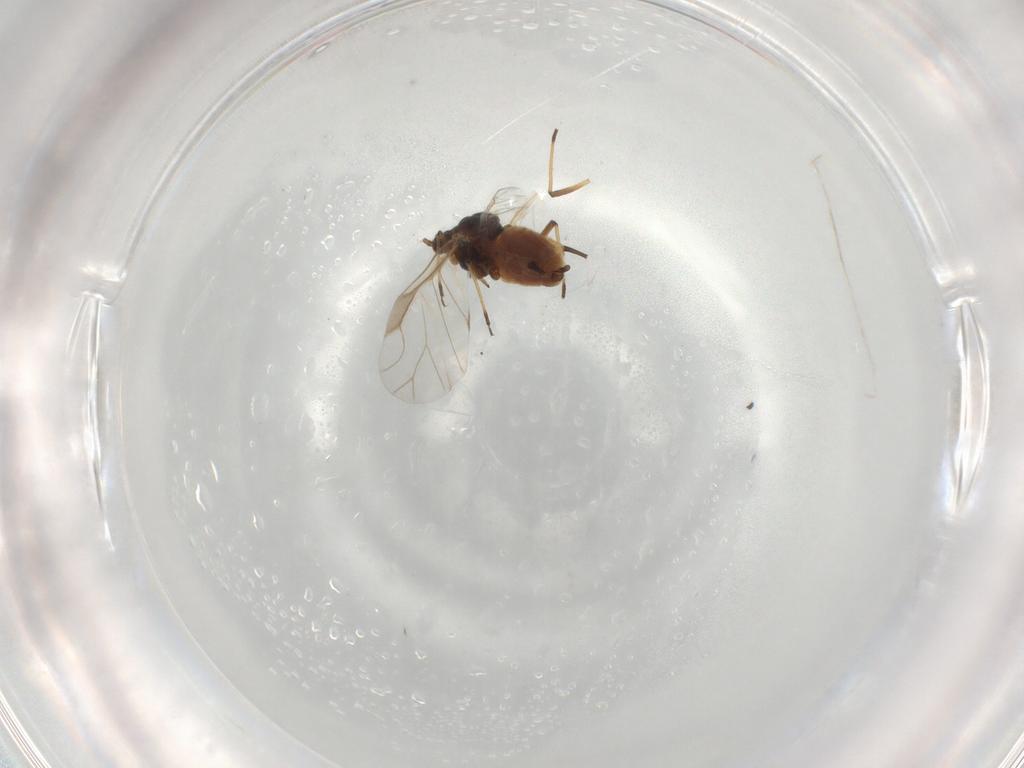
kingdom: Animalia
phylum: Arthropoda
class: Insecta
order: Hemiptera
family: Aphididae
